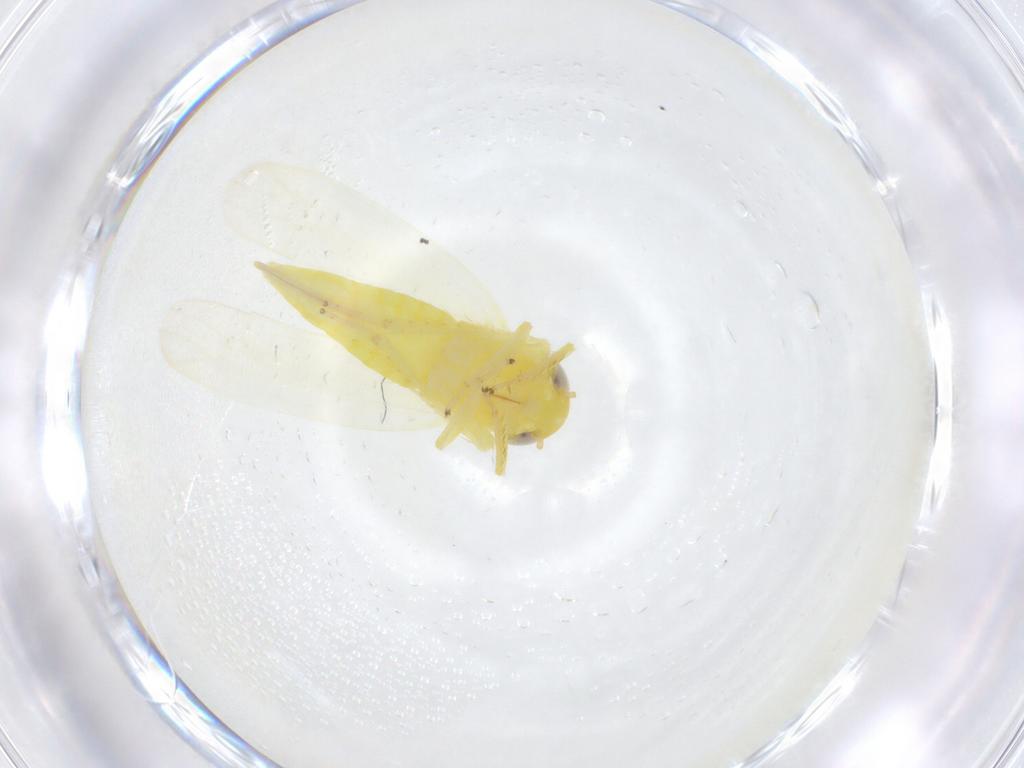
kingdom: Animalia
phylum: Arthropoda
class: Insecta
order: Hemiptera
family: Cicadellidae
